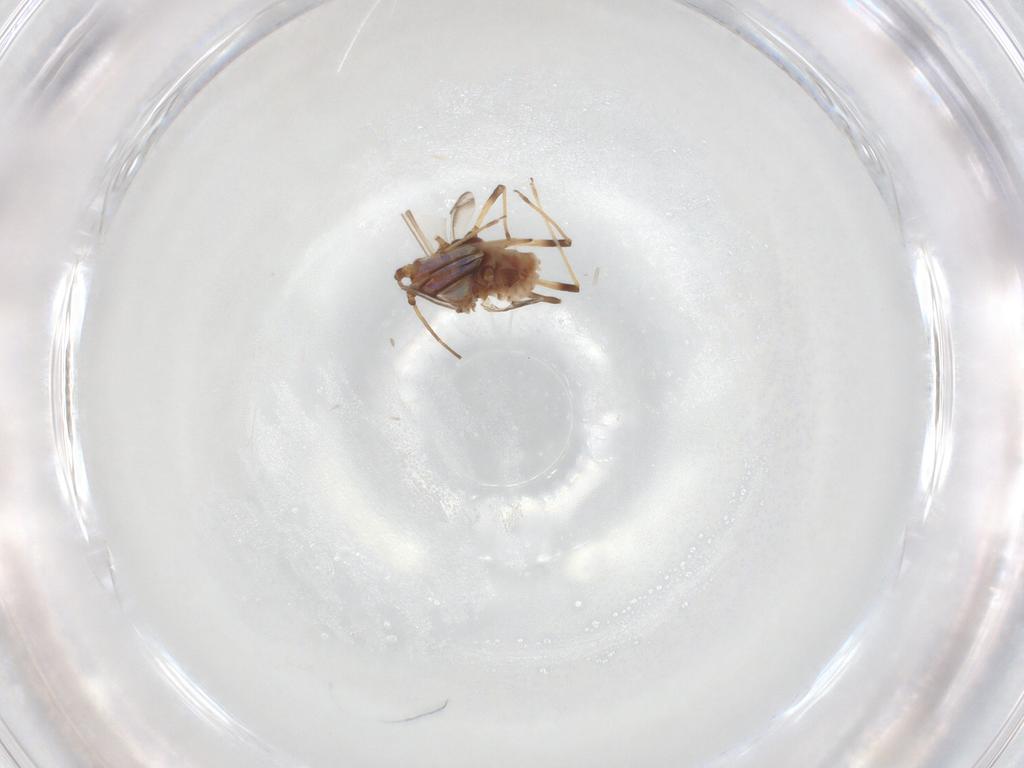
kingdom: Animalia
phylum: Arthropoda
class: Insecta
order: Hemiptera
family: Aphididae
